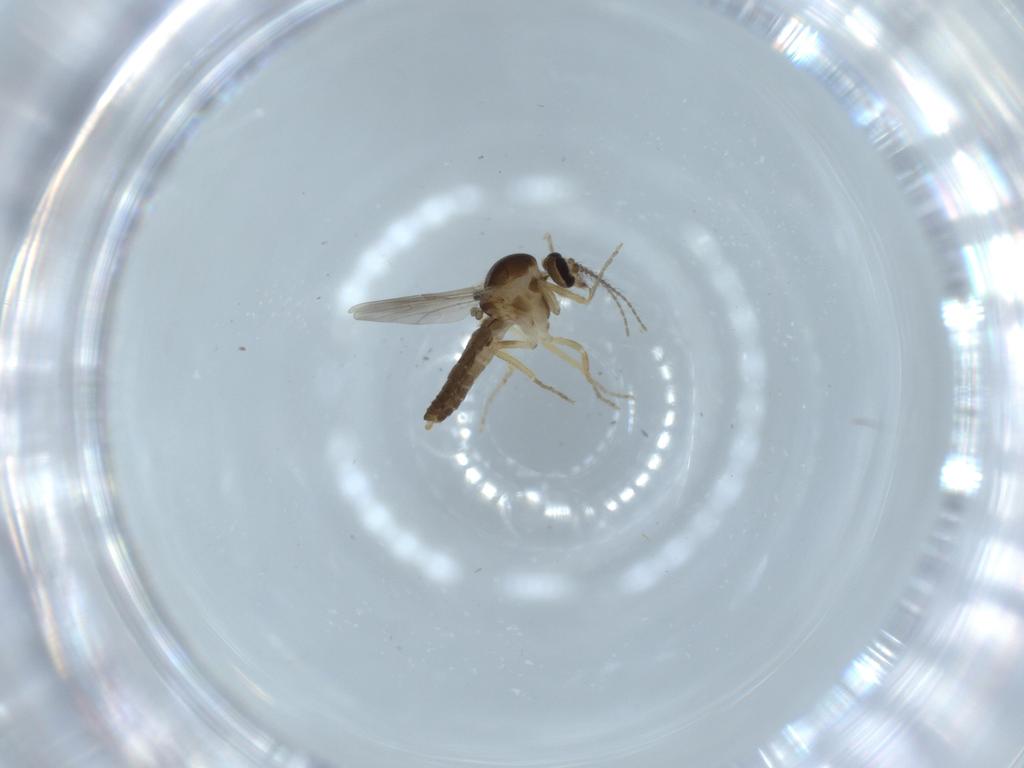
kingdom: Animalia
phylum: Arthropoda
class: Insecta
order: Diptera
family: Ceratopogonidae
